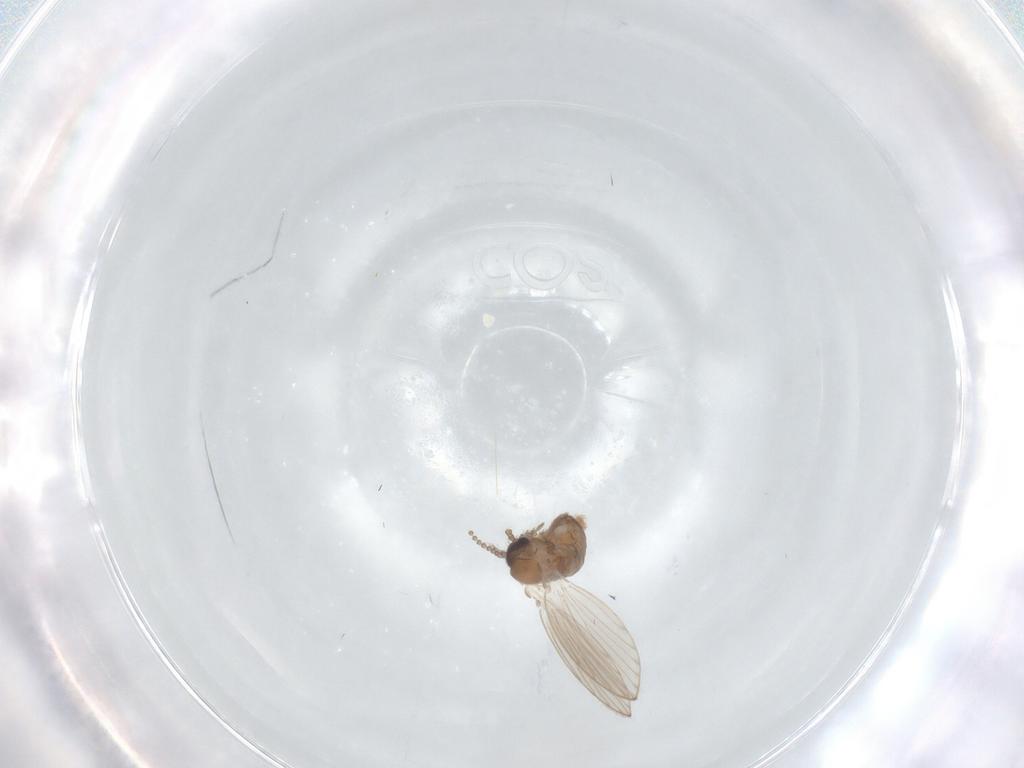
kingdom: Animalia
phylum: Arthropoda
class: Insecta
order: Diptera
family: Psychodidae
